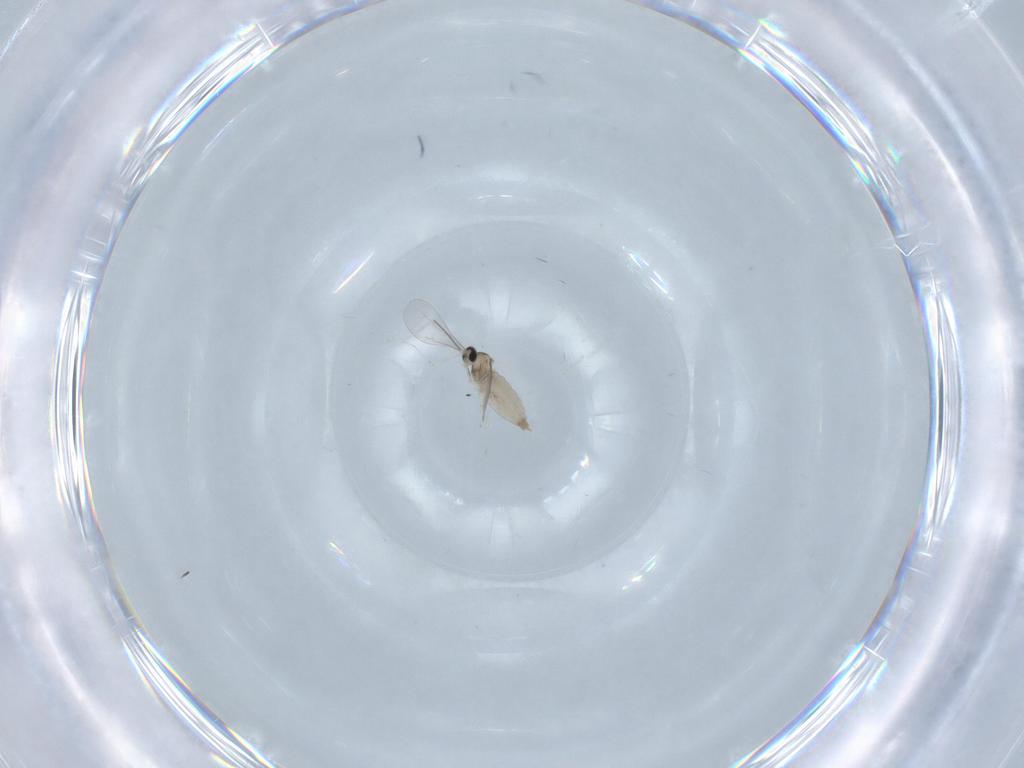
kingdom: Animalia
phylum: Arthropoda
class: Insecta
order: Diptera
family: Cecidomyiidae
